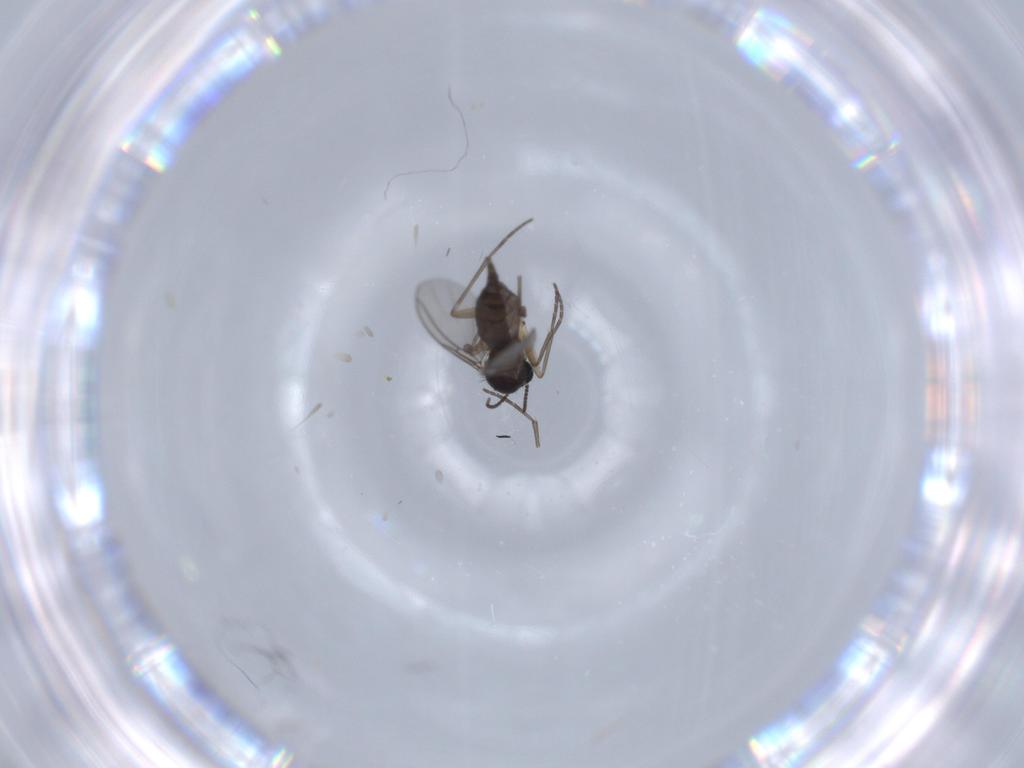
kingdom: Animalia
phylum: Arthropoda
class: Insecta
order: Diptera
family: Sciaridae
